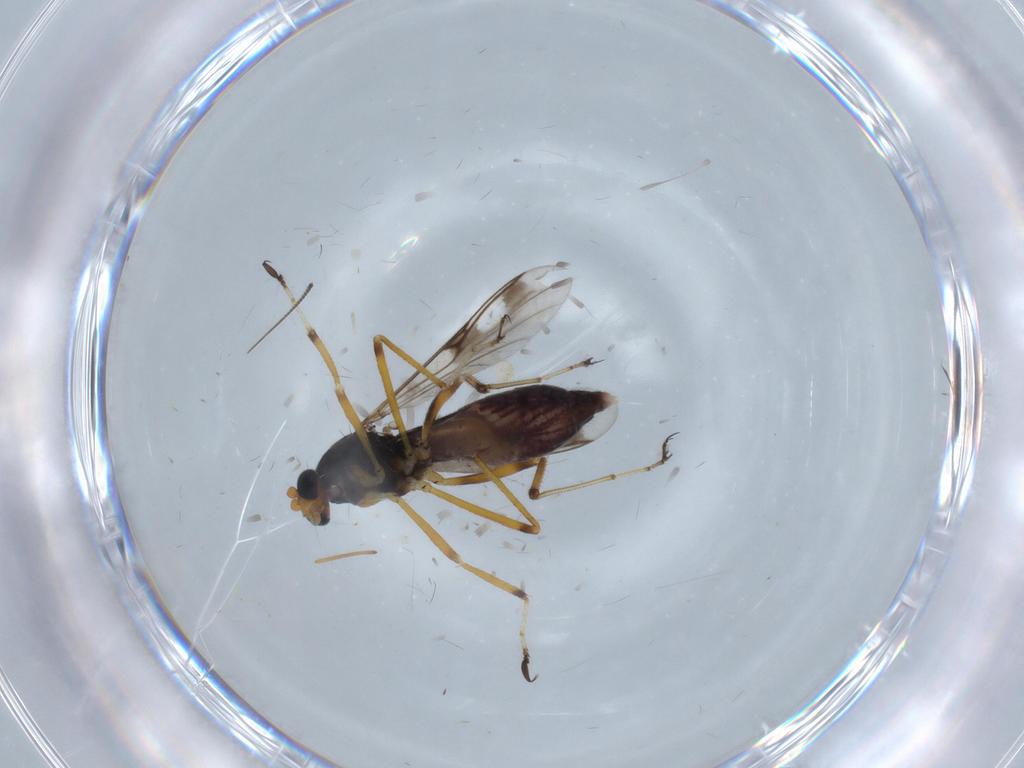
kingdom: Animalia
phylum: Arthropoda
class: Insecta
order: Diptera
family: Ceratopogonidae
